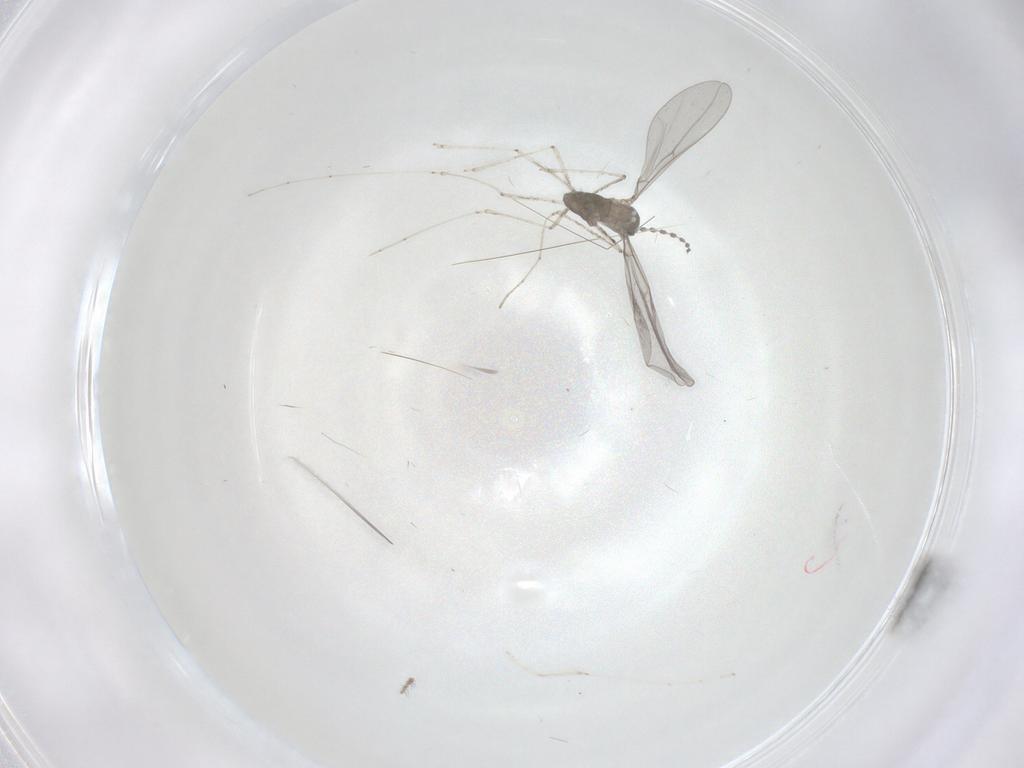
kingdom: Animalia
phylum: Arthropoda
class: Insecta
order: Diptera
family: Ceratopogonidae
